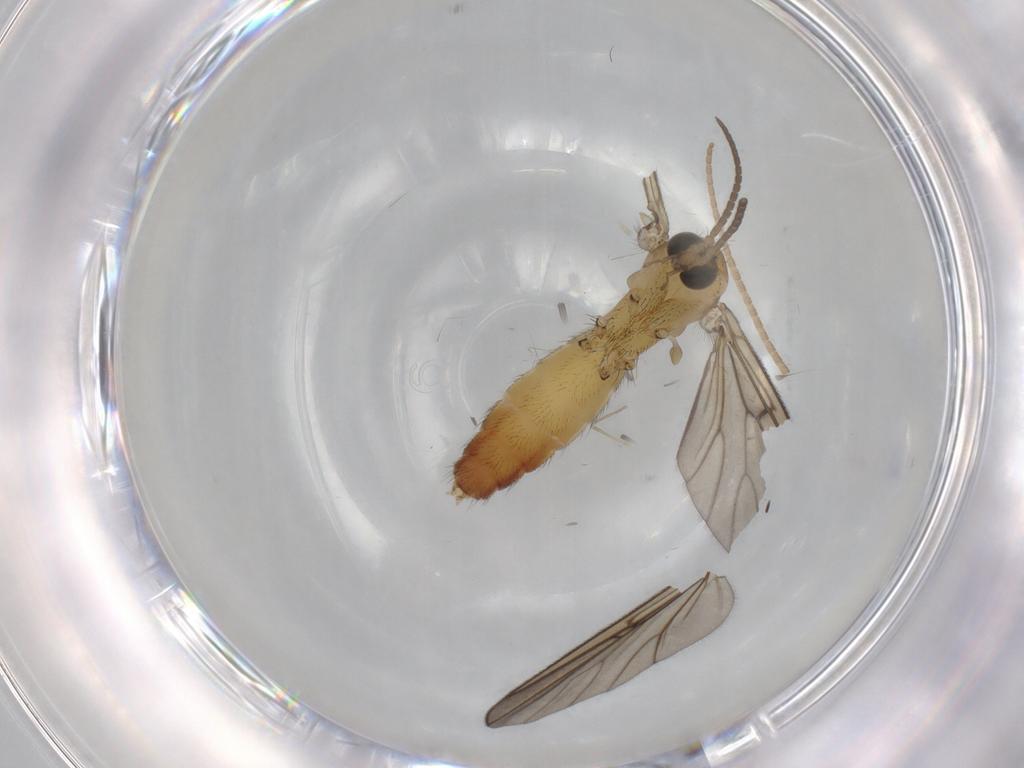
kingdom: Animalia
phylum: Arthropoda
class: Insecta
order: Diptera
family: Mycetophilidae
